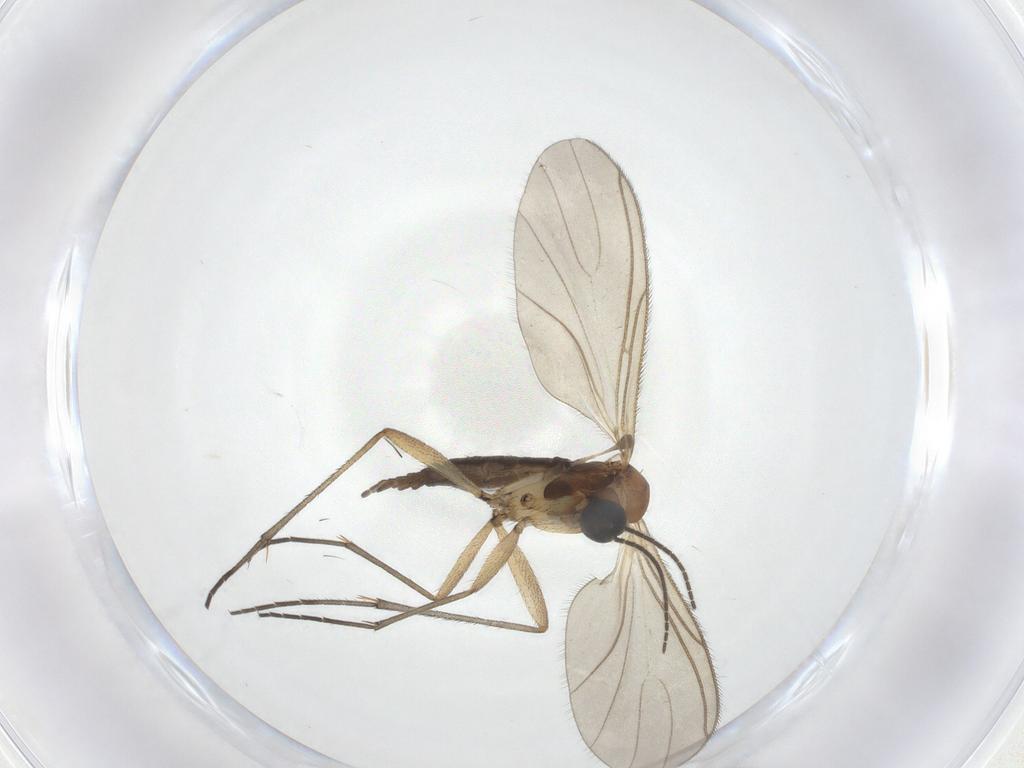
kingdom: Animalia
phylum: Arthropoda
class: Insecta
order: Diptera
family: Sciaridae
